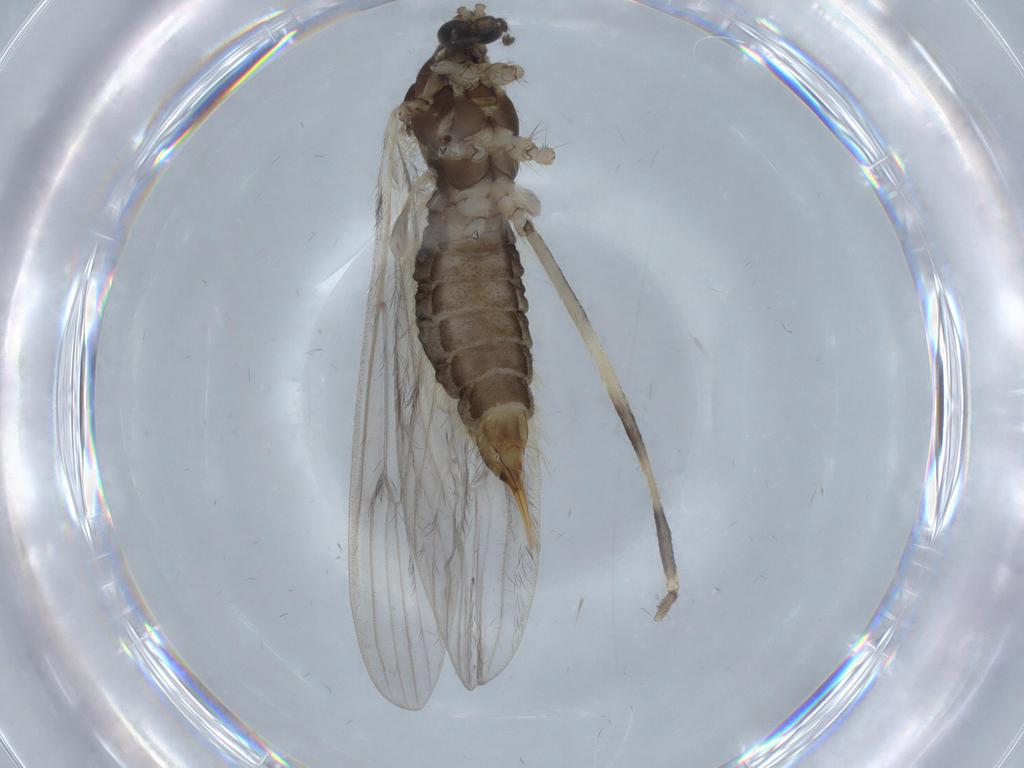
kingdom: Animalia
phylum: Arthropoda
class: Insecta
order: Diptera
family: Limoniidae
